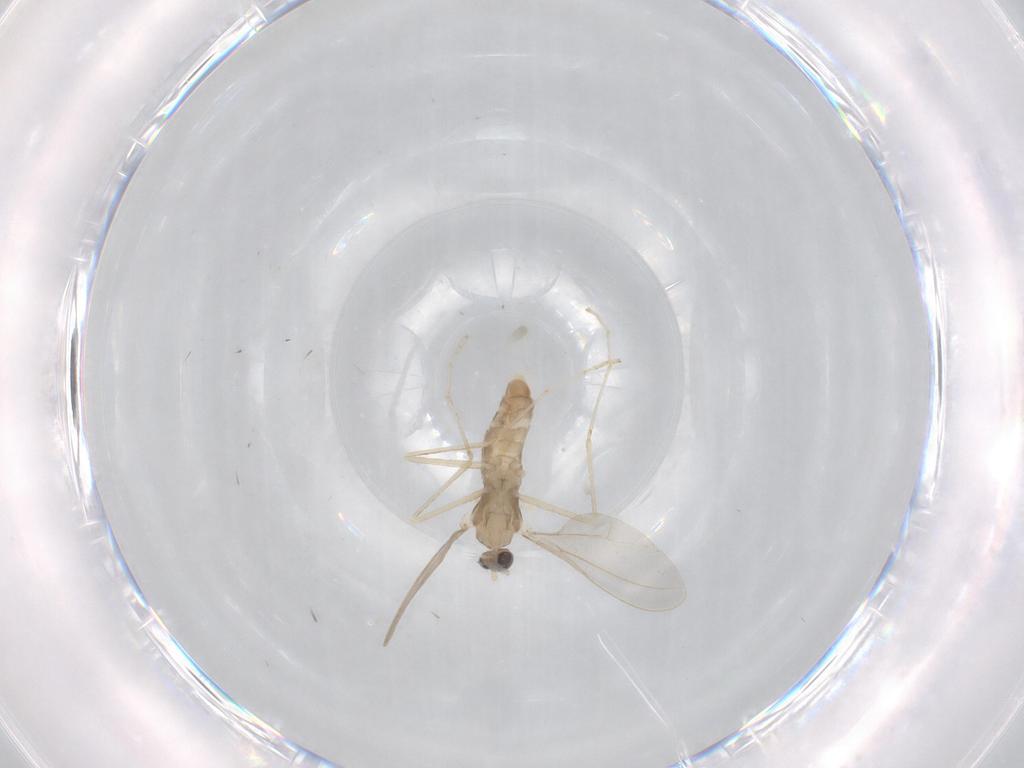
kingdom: Animalia
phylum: Arthropoda
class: Insecta
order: Diptera
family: Cecidomyiidae
